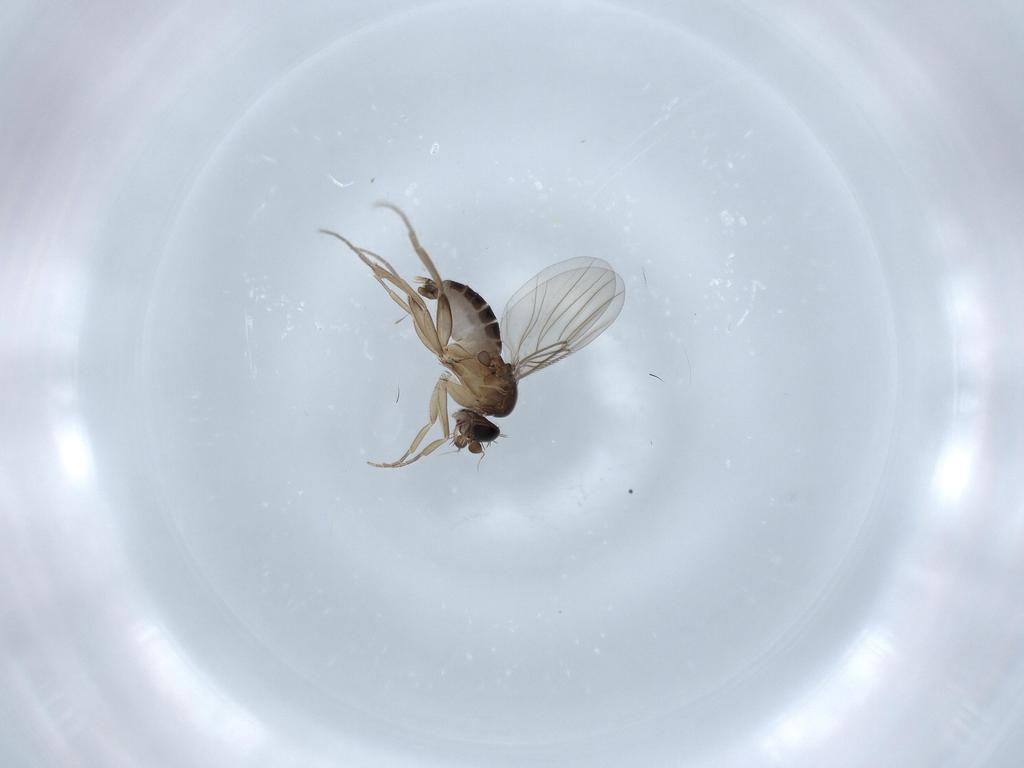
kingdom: Animalia
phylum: Arthropoda
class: Insecta
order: Diptera
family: Phoridae
